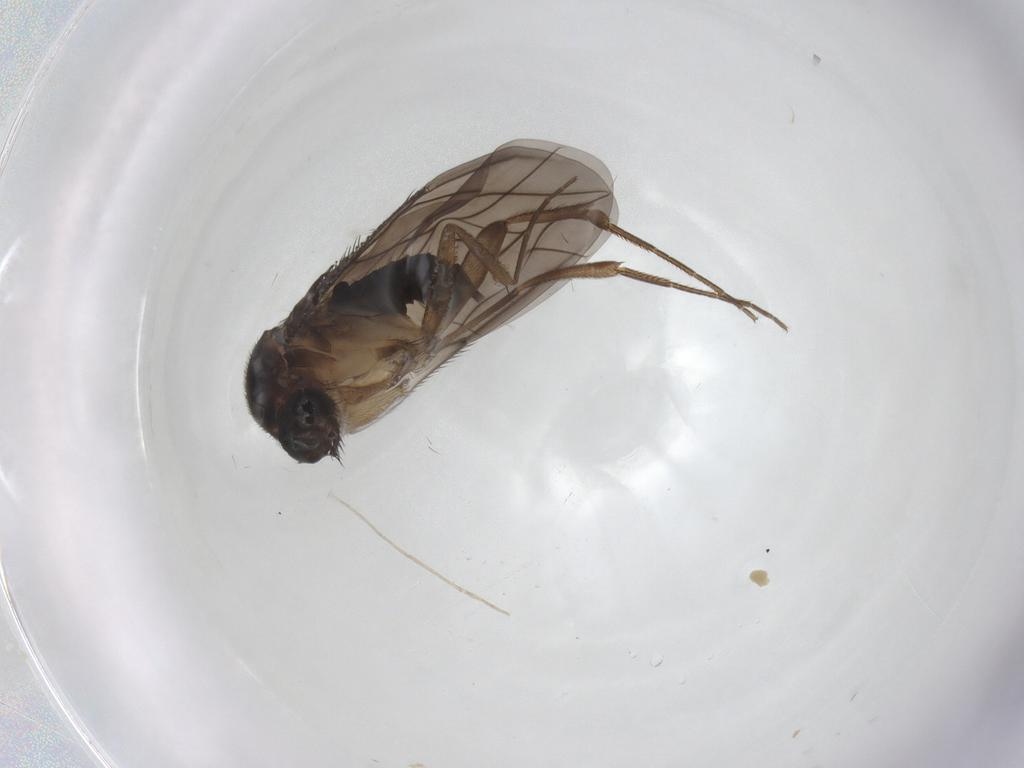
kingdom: Animalia
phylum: Arthropoda
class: Insecta
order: Diptera
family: Phoridae
